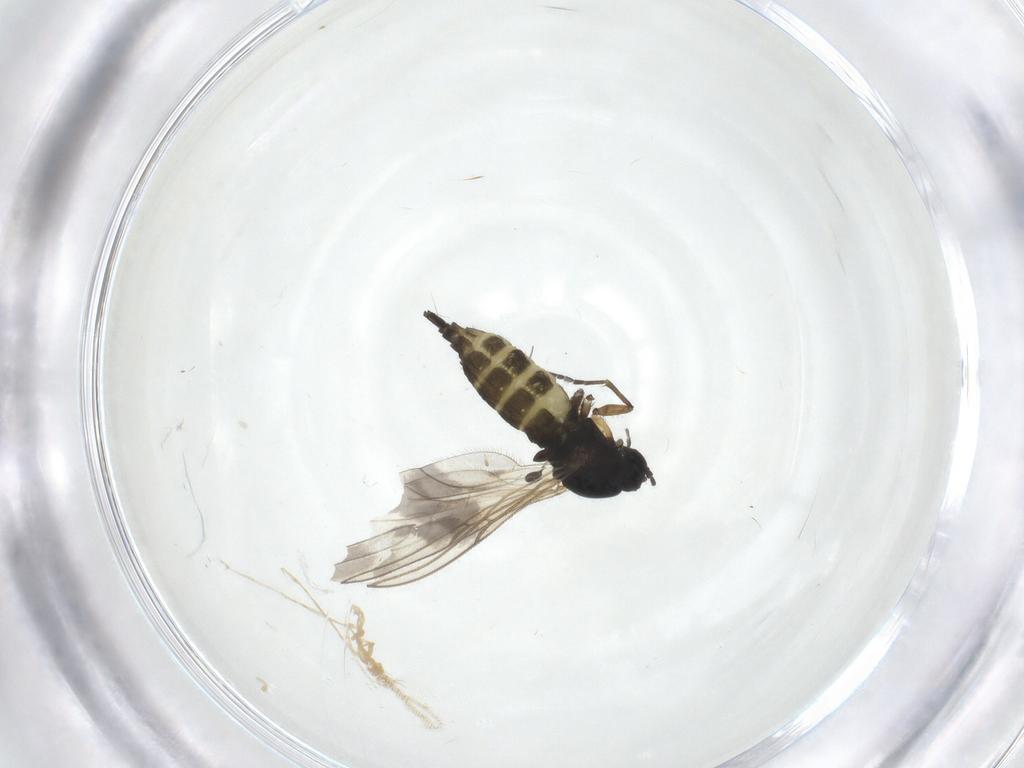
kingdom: Animalia
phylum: Arthropoda
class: Insecta
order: Diptera
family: Sciaridae
